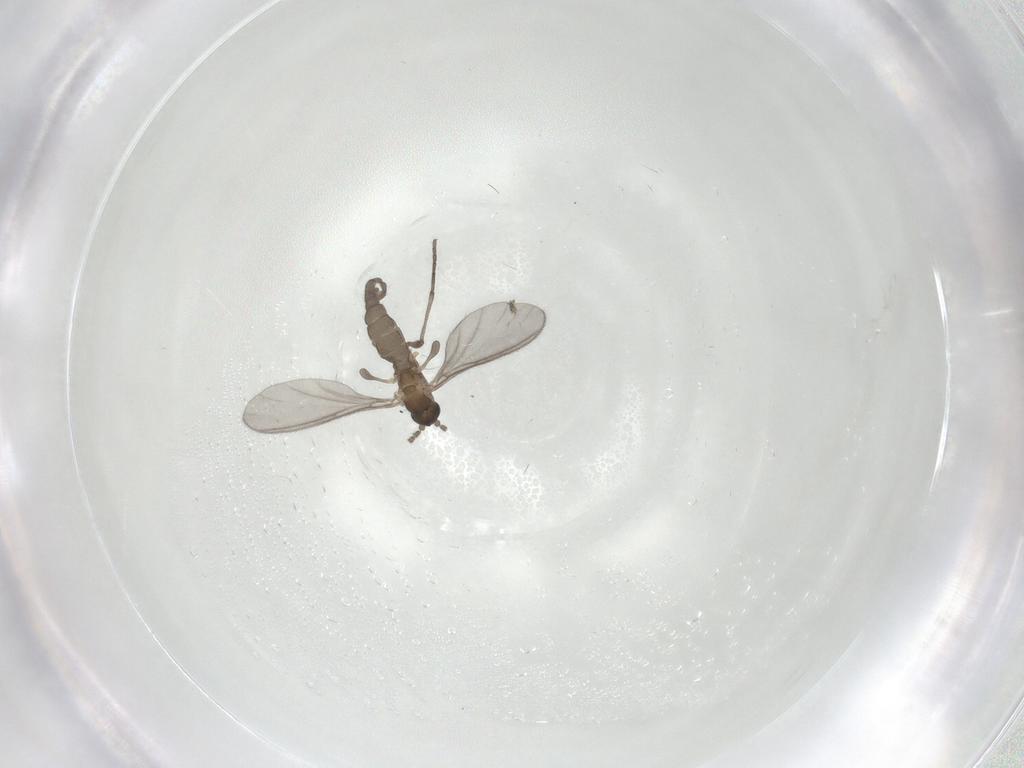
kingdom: Animalia
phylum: Arthropoda
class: Insecta
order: Diptera
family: Sciaridae
